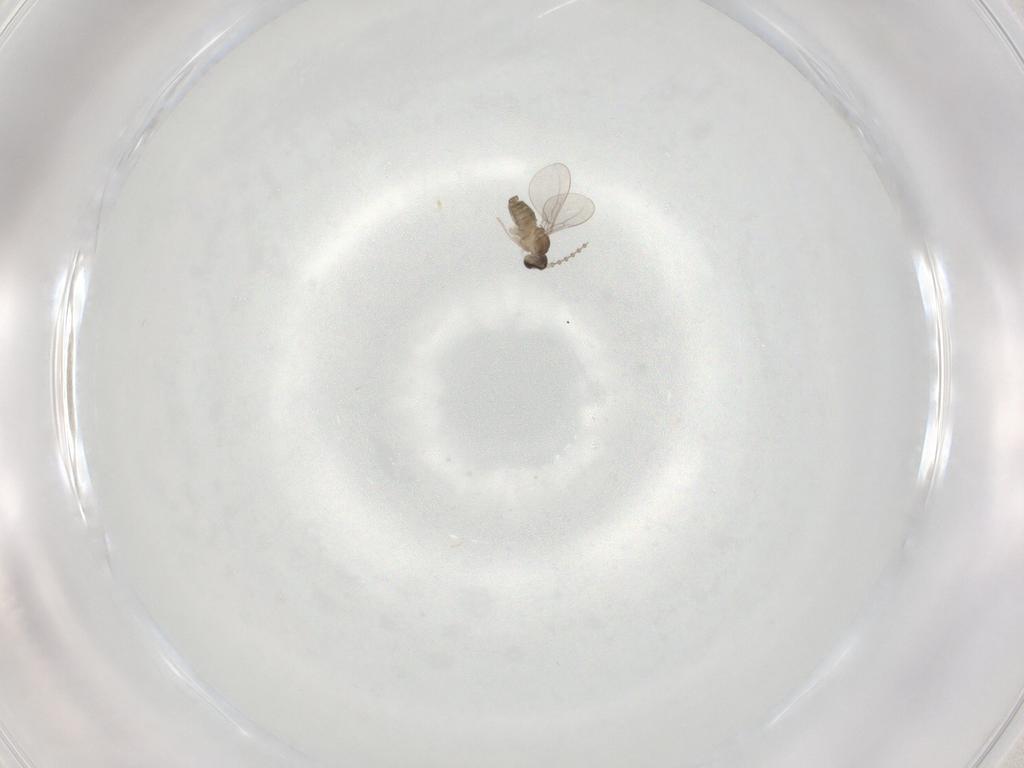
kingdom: Animalia
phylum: Arthropoda
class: Insecta
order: Diptera
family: Cecidomyiidae
